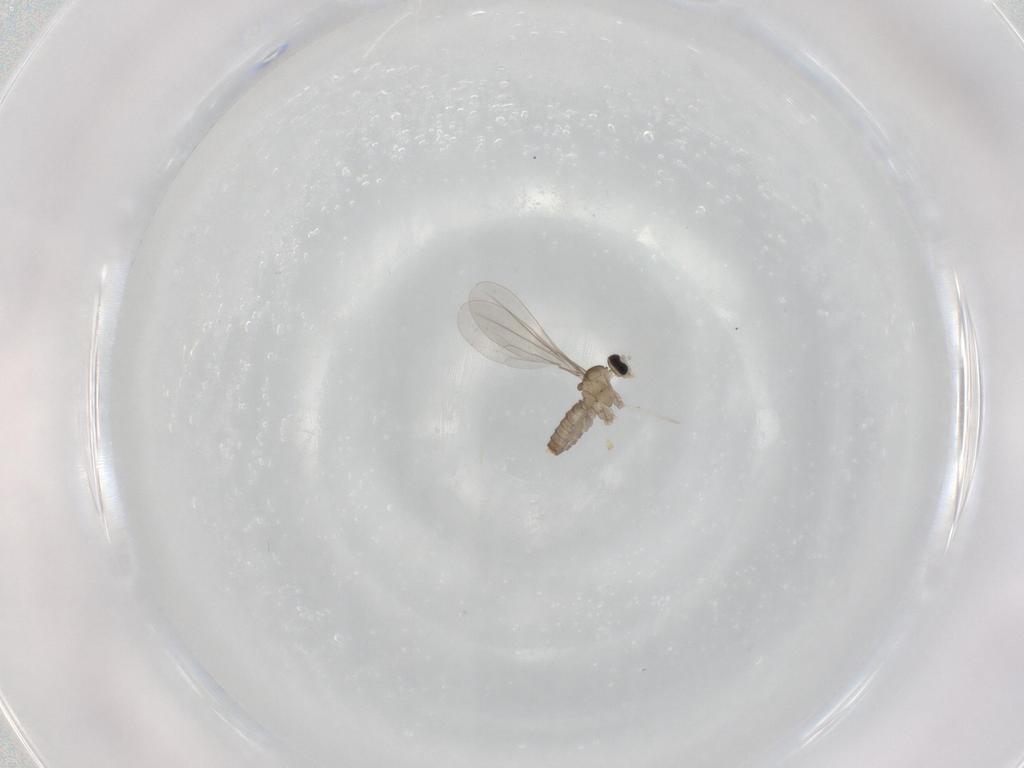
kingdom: Animalia
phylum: Arthropoda
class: Insecta
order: Diptera
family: Cecidomyiidae
